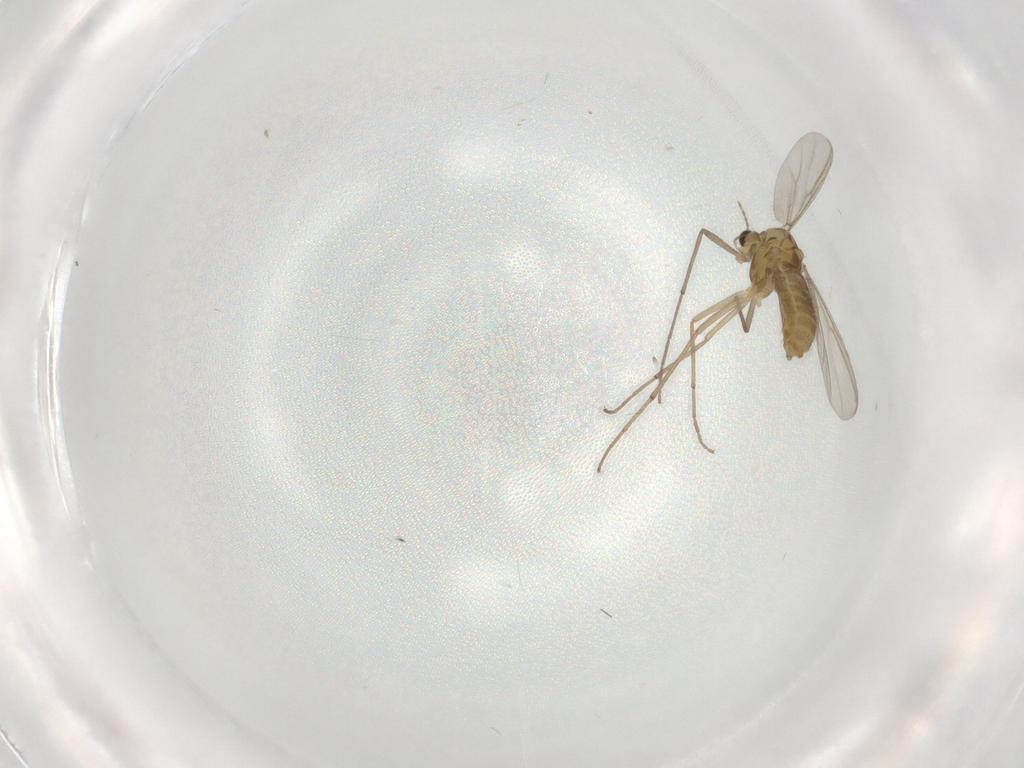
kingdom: Animalia
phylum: Arthropoda
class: Insecta
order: Diptera
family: Chironomidae
